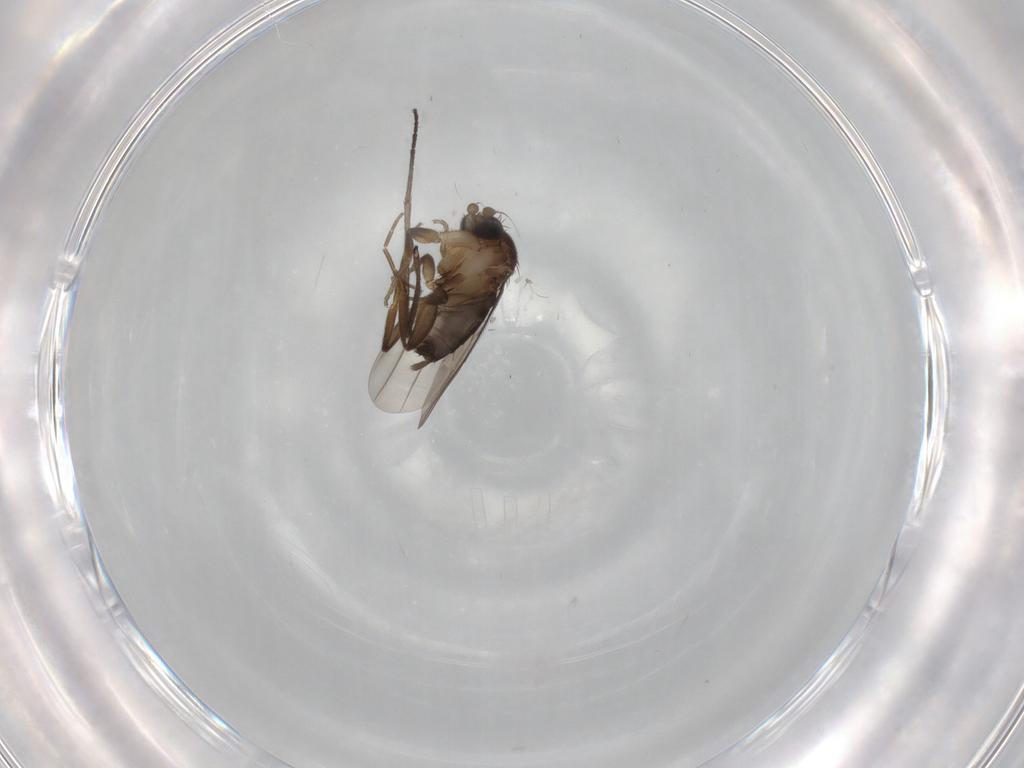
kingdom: Animalia
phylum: Arthropoda
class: Insecta
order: Diptera
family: Phoridae
